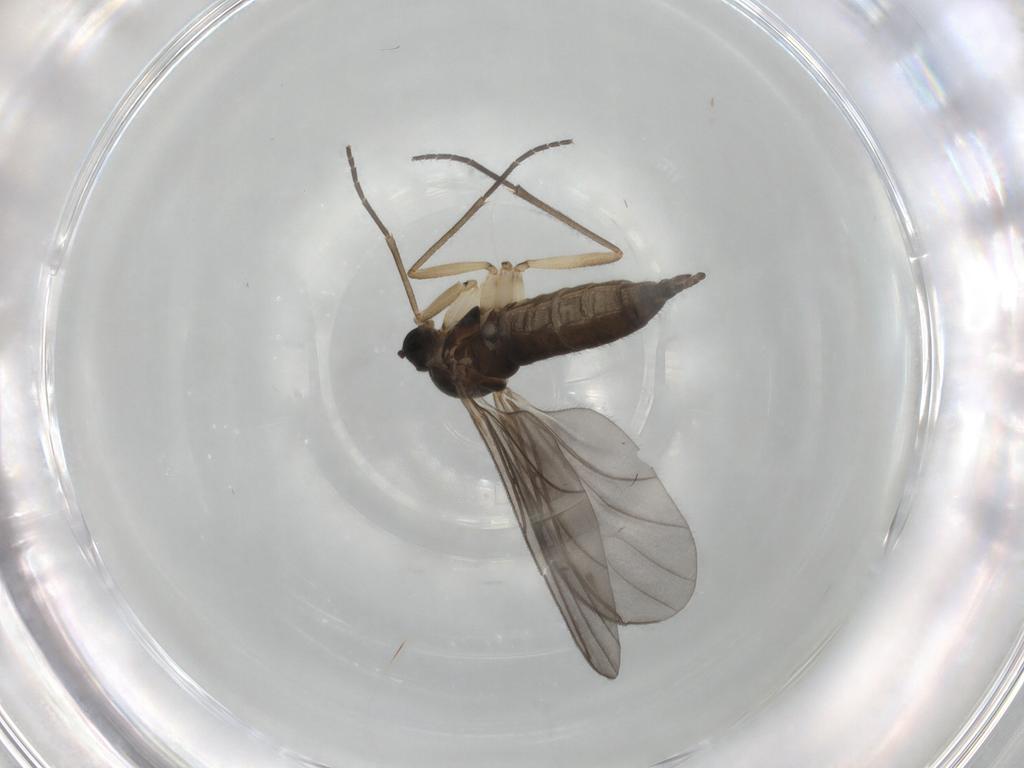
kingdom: Animalia
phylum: Arthropoda
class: Insecta
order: Diptera
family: Sciaridae
